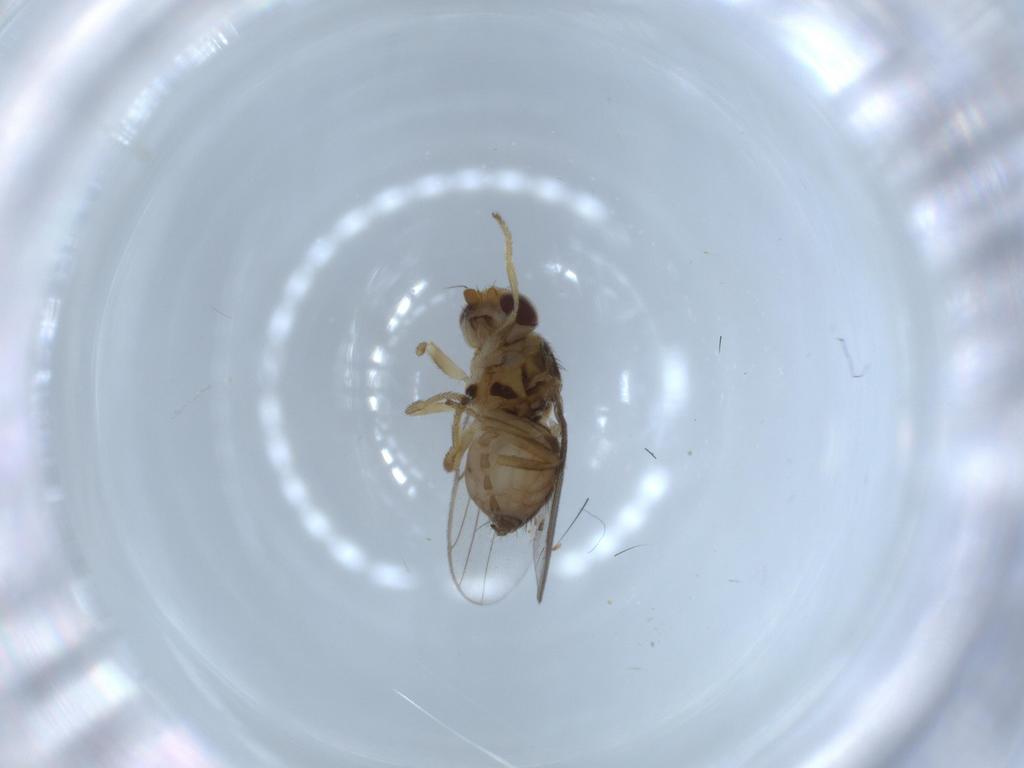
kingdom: Animalia
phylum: Arthropoda
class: Insecta
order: Diptera
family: Chloropidae
